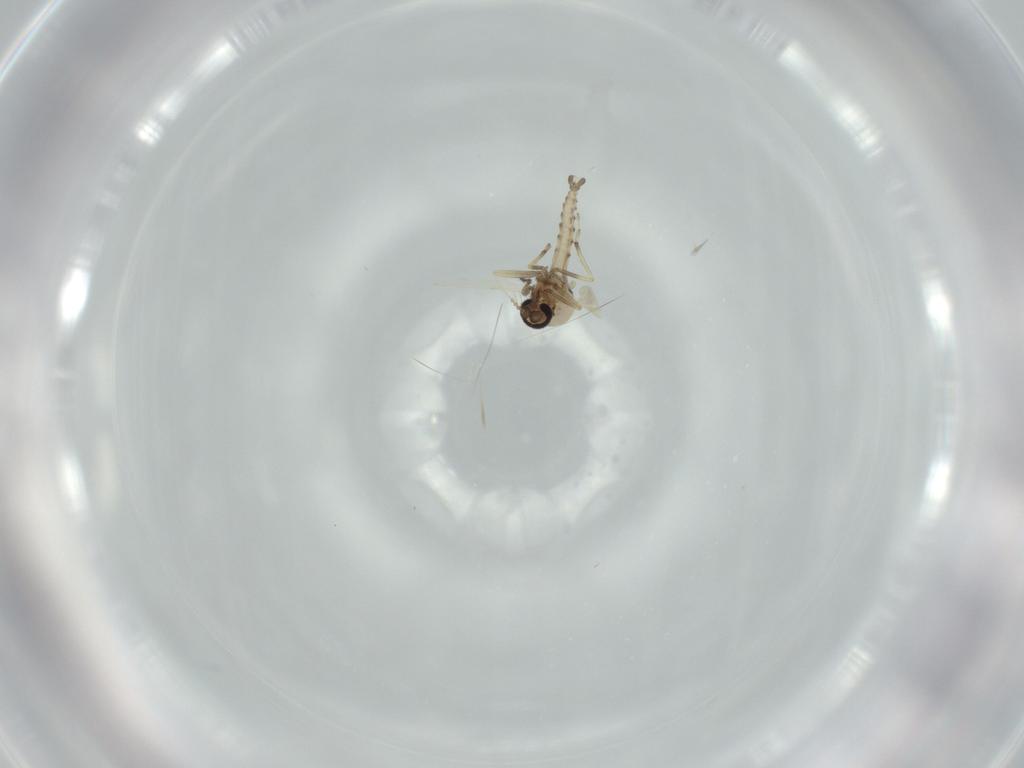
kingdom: Animalia
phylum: Arthropoda
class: Insecta
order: Diptera
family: Ceratopogonidae
